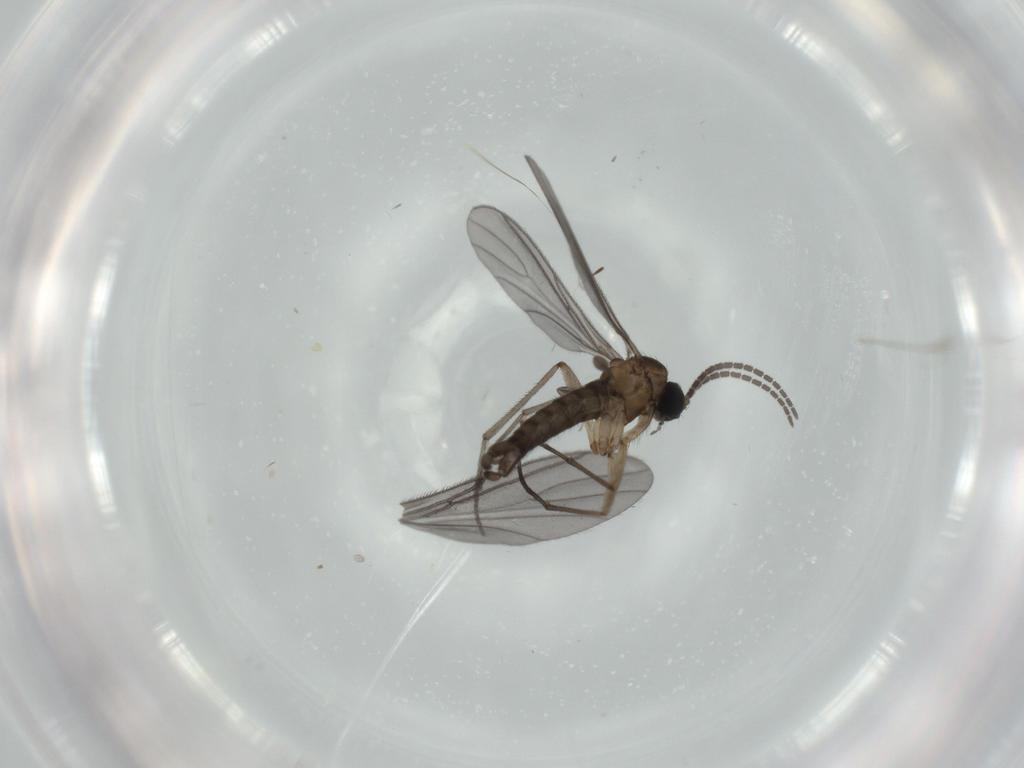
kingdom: Animalia
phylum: Arthropoda
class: Insecta
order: Diptera
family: Sciaridae
